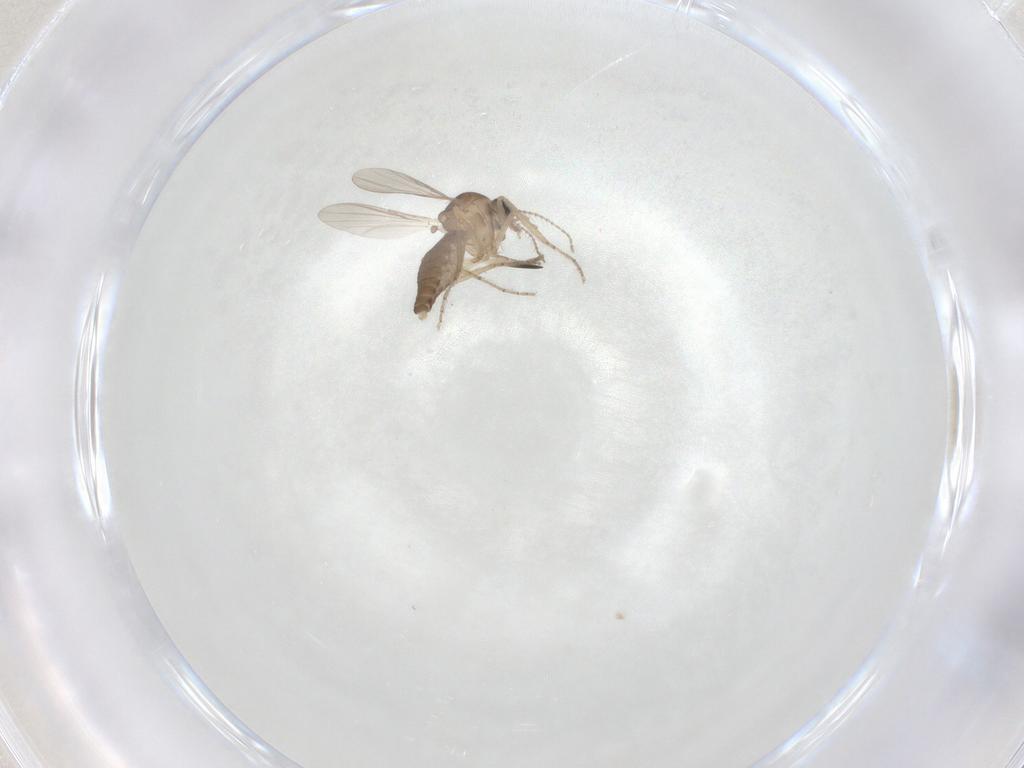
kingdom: Animalia
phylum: Arthropoda
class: Insecta
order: Diptera
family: Ceratopogonidae
